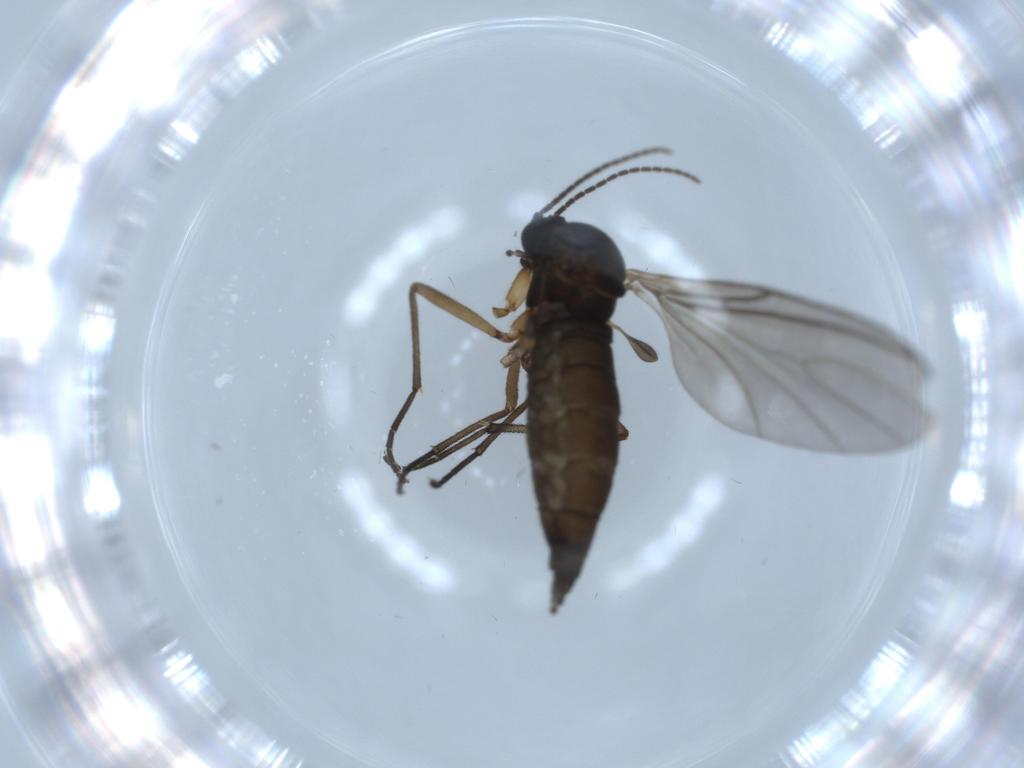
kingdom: Animalia
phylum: Arthropoda
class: Insecta
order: Diptera
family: Sciaridae
